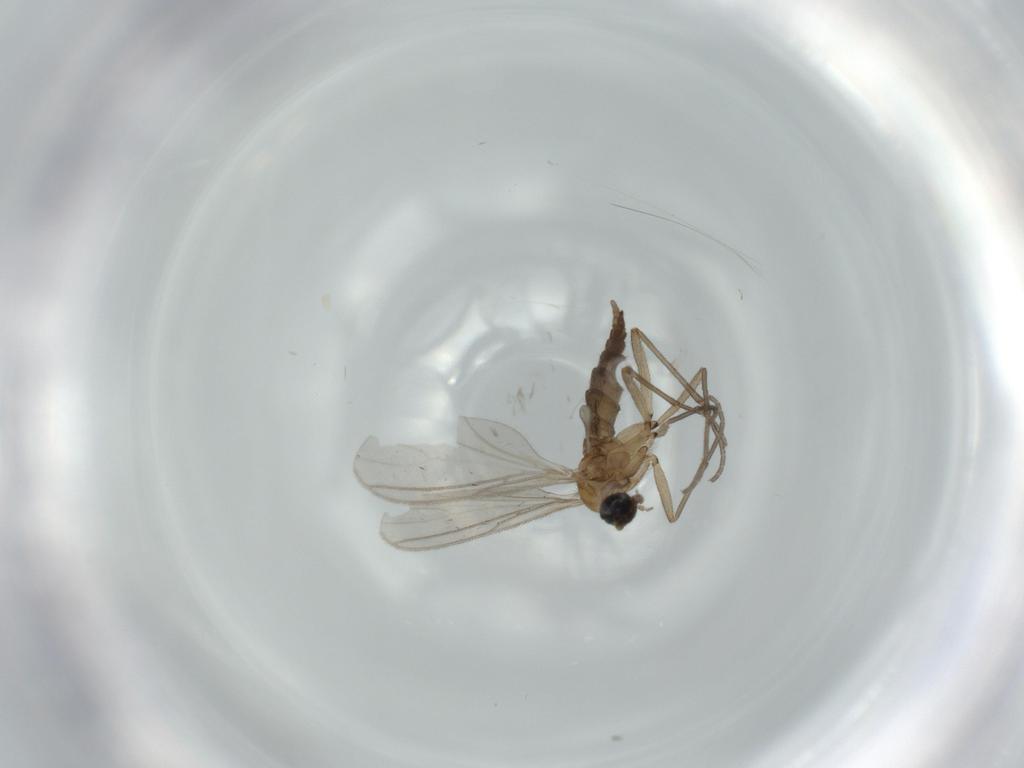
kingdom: Animalia
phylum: Arthropoda
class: Insecta
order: Diptera
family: Sciaridae
